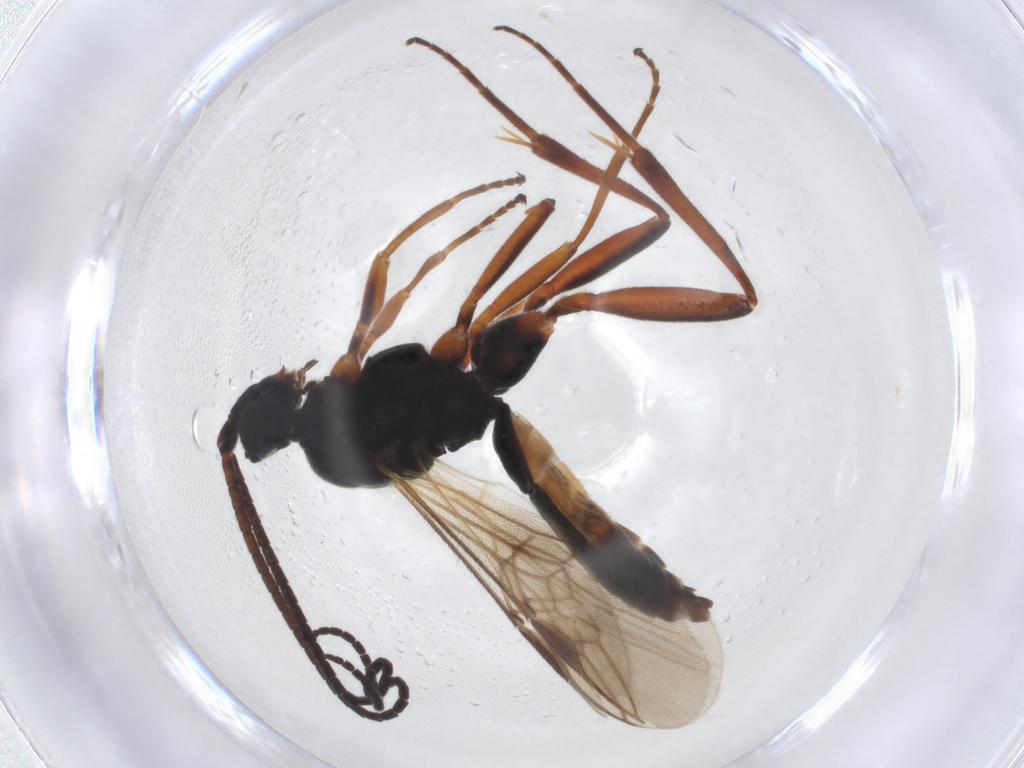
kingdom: Animalia
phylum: Arthropoda
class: Insecta
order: Hymenoptera
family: Braconidae
